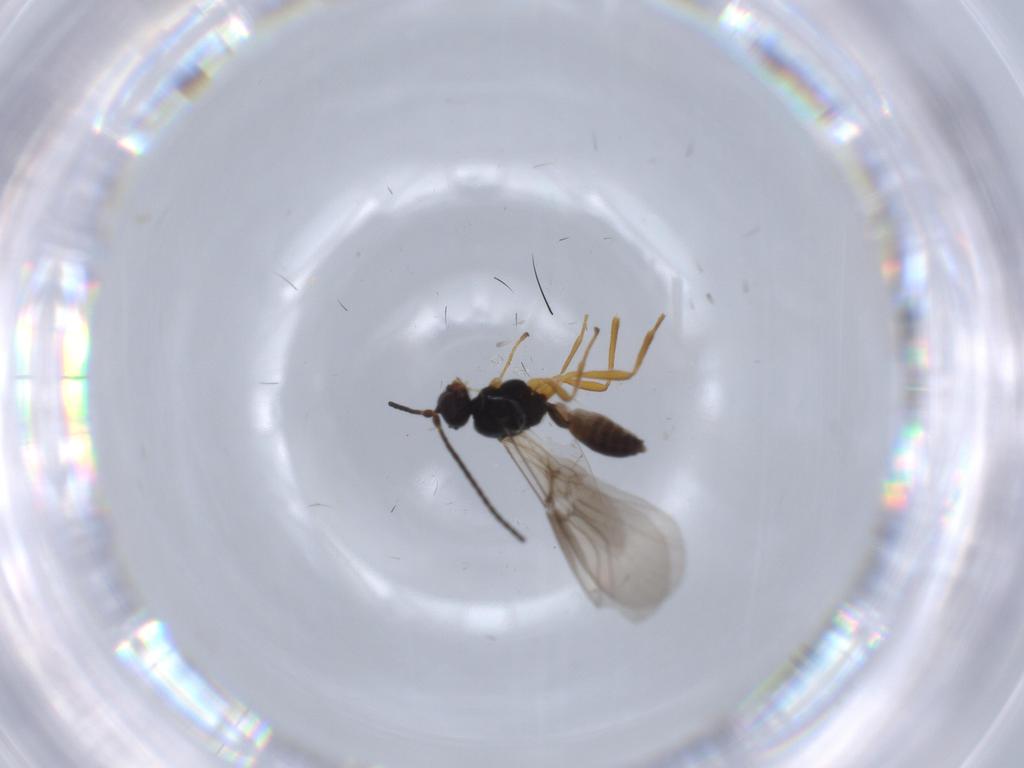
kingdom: Animalia
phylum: Arthropoda
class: Insecta
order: Hymenoptera
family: Braconidae
